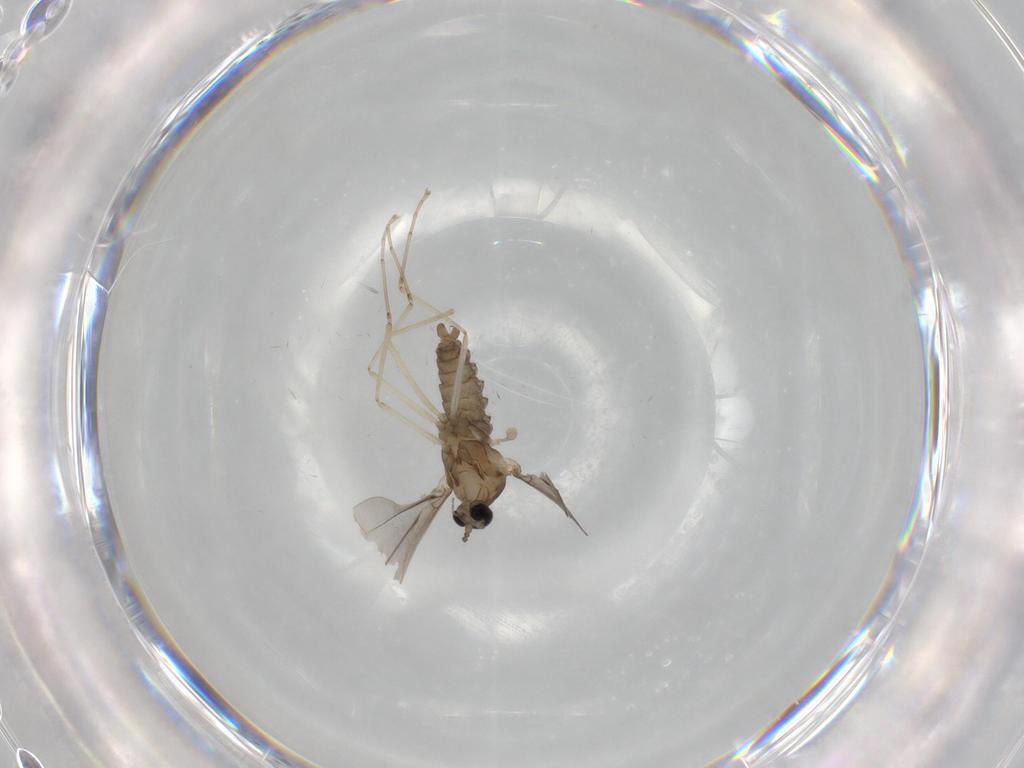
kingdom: Animalia
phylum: Arthropoda
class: Insecta
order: Diptera
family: Cecidomyiidae
